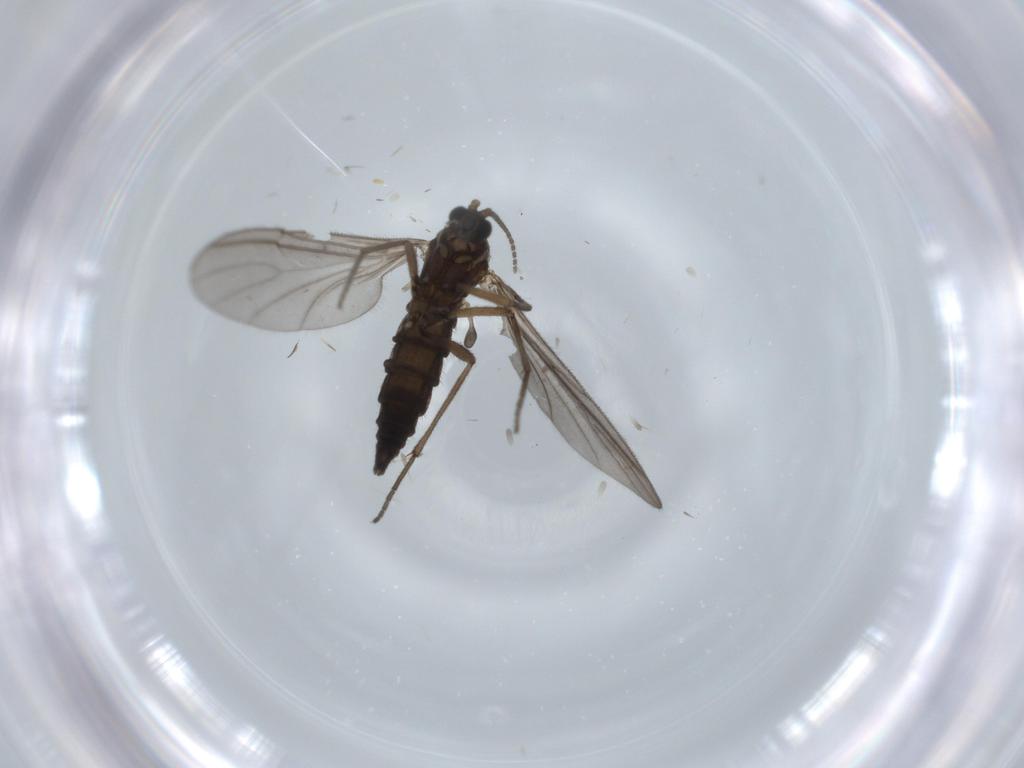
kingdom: Animalia
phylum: Arthropoda
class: Insecta
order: Diptera
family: Sciaridae
